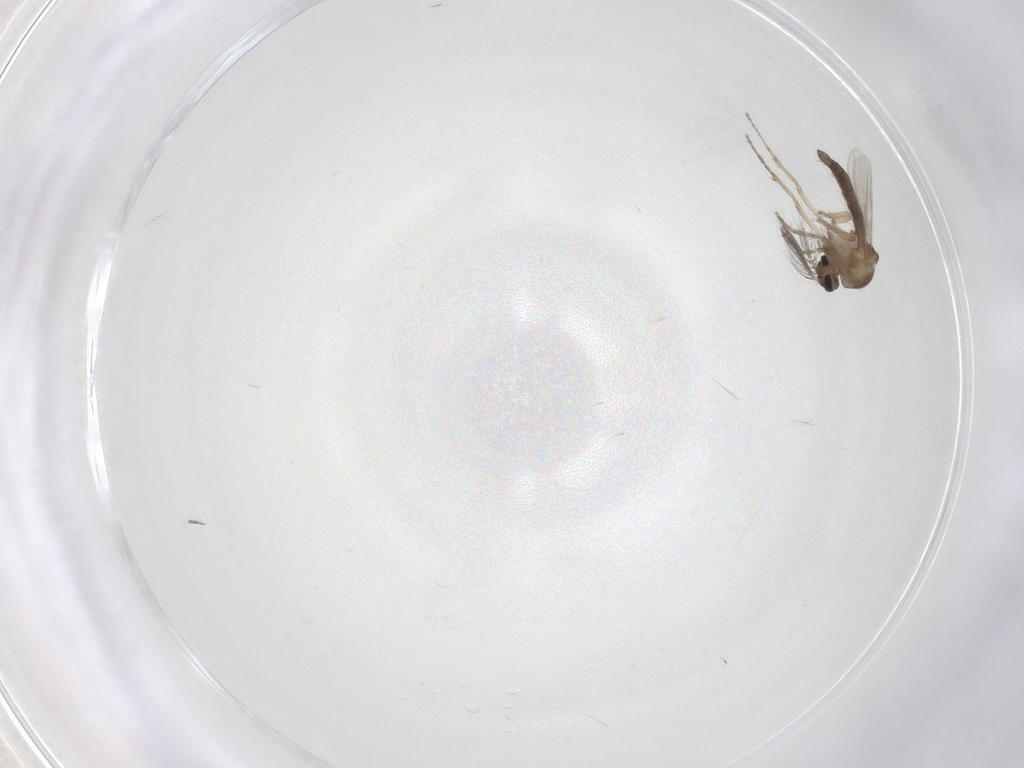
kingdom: Animalia
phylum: Arthropoda
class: Insecta
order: Diptera
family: Ceratopogonidae
